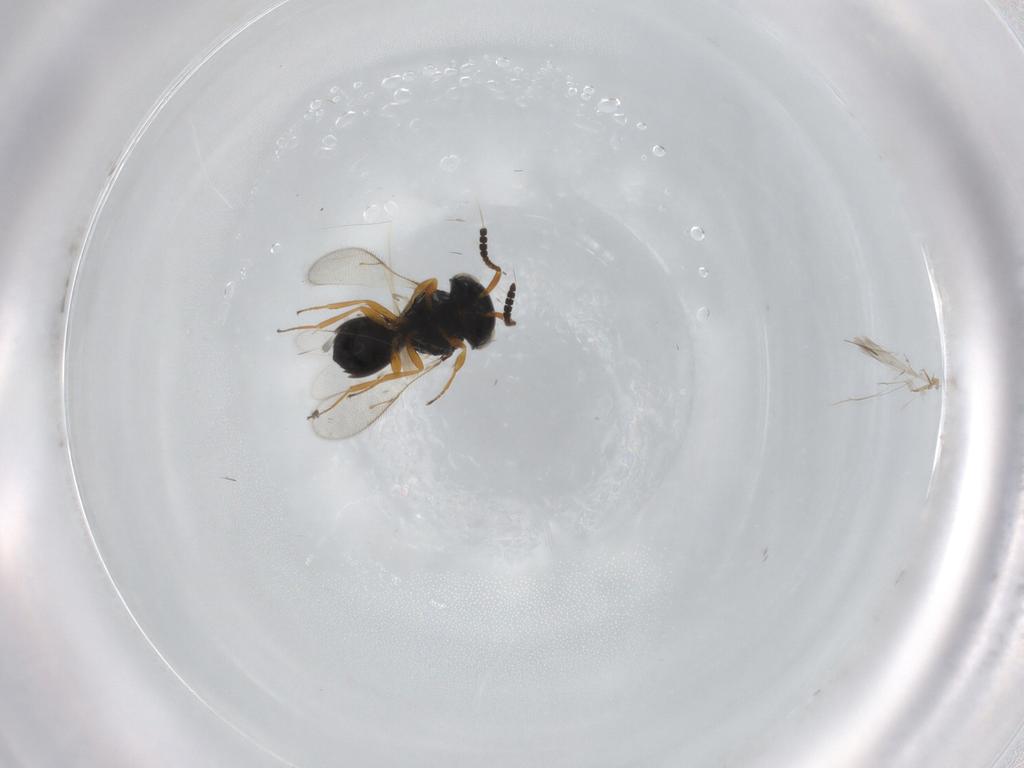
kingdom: Animalia
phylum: Arthropoda
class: Insecta
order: Hymenoptera
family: Scelionidae
